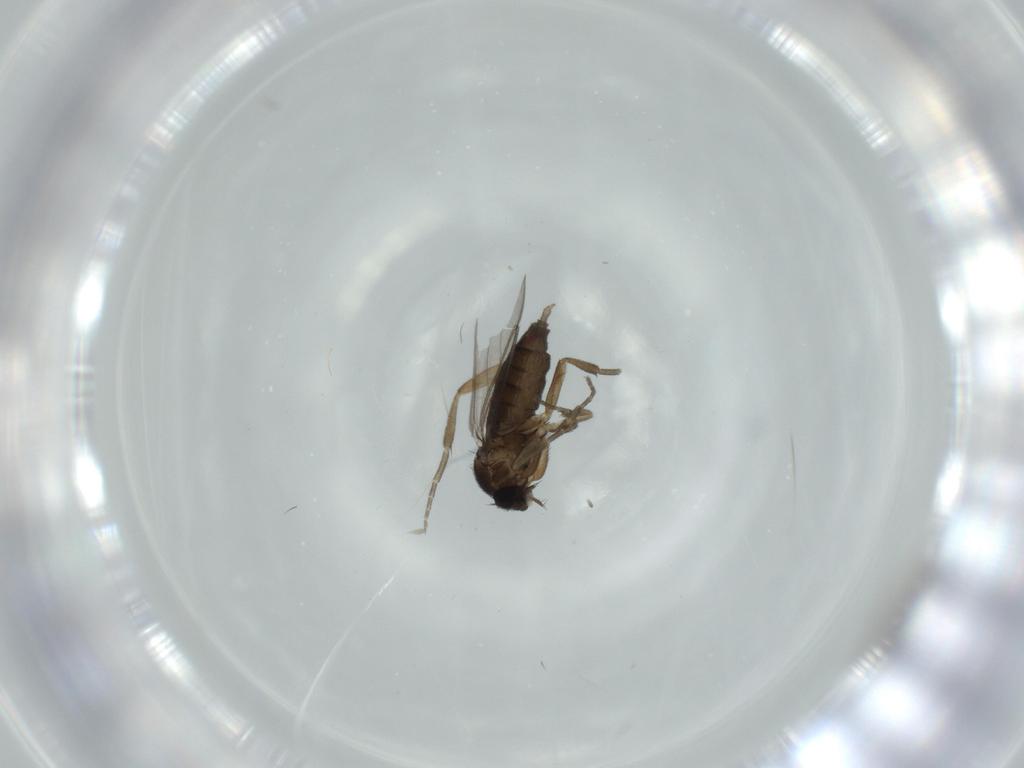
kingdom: Animalia
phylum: Arthropoda
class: Insecta
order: Diptera
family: Phoridae
